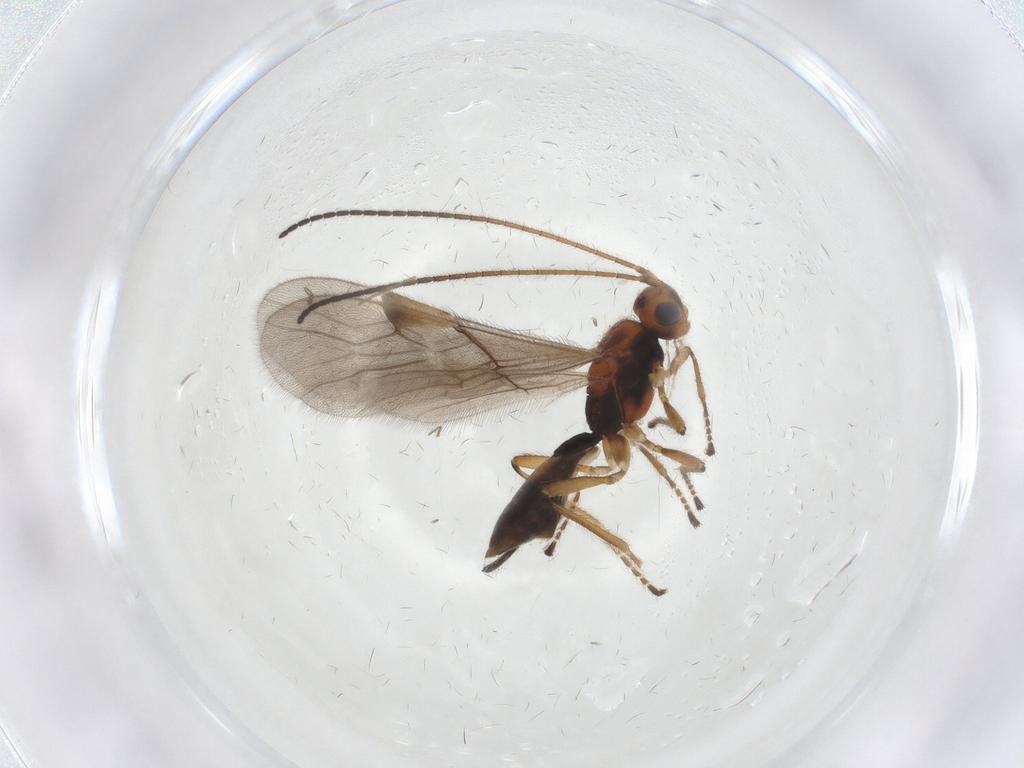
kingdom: Animalia
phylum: Arthropoda
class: Insecta
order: Hymenoptera
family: Braconidae
